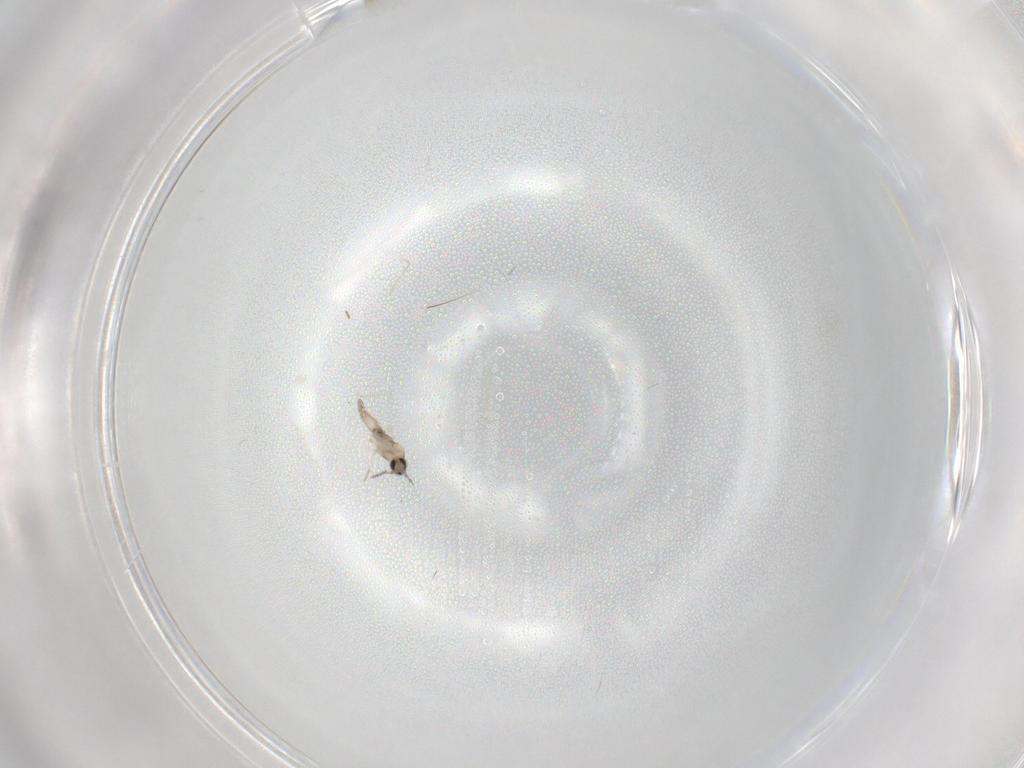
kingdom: Animalia
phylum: Arthropoda
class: Insecta
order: Diptera
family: Cecidomyiidae
